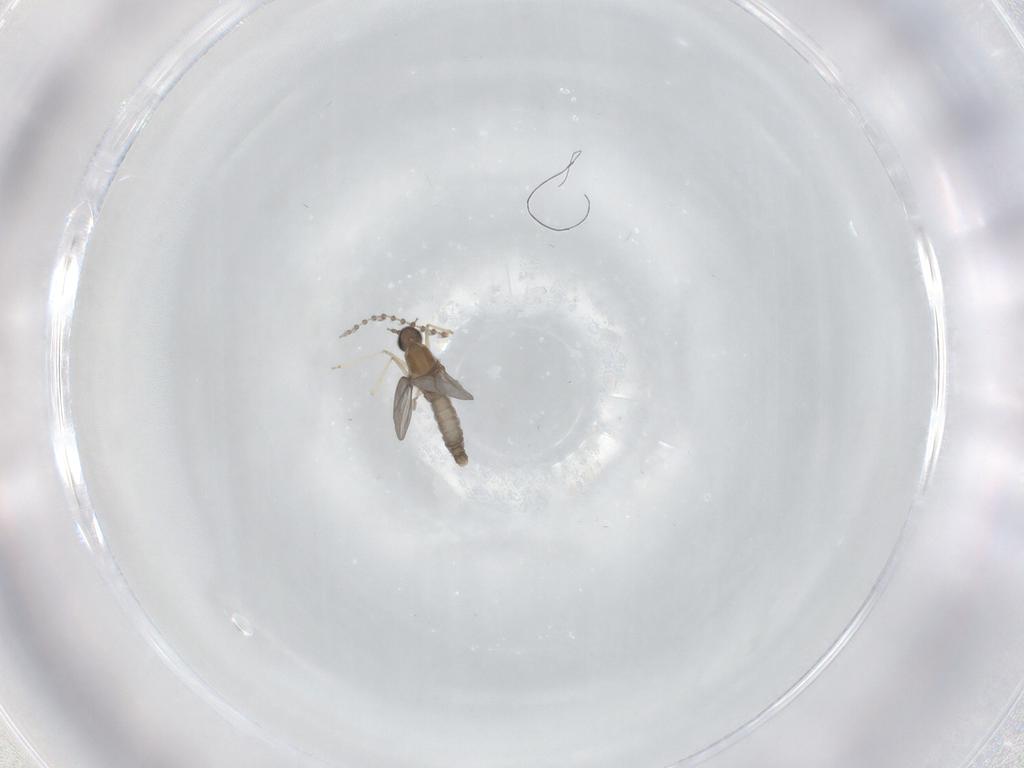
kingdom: Animalia
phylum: Arthropoda
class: Insecta
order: Diptera
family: Cecidomyiidae
